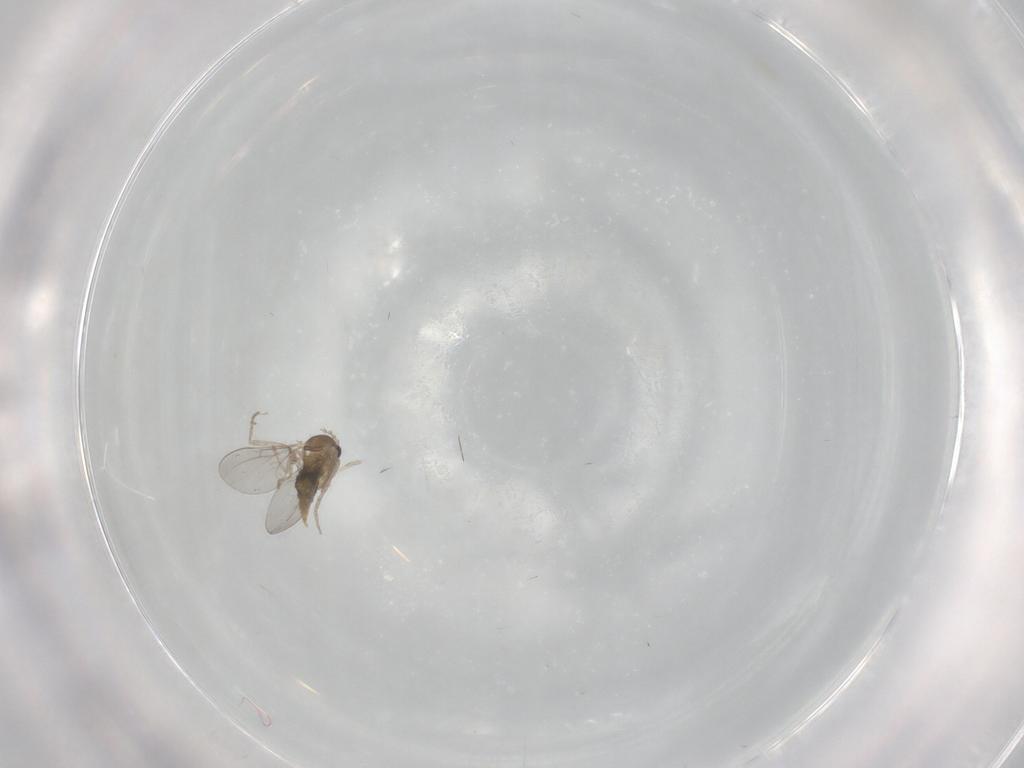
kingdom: Animalia
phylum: Arthropoda
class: Insecta
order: Diptera
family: Cecidomyiidae
